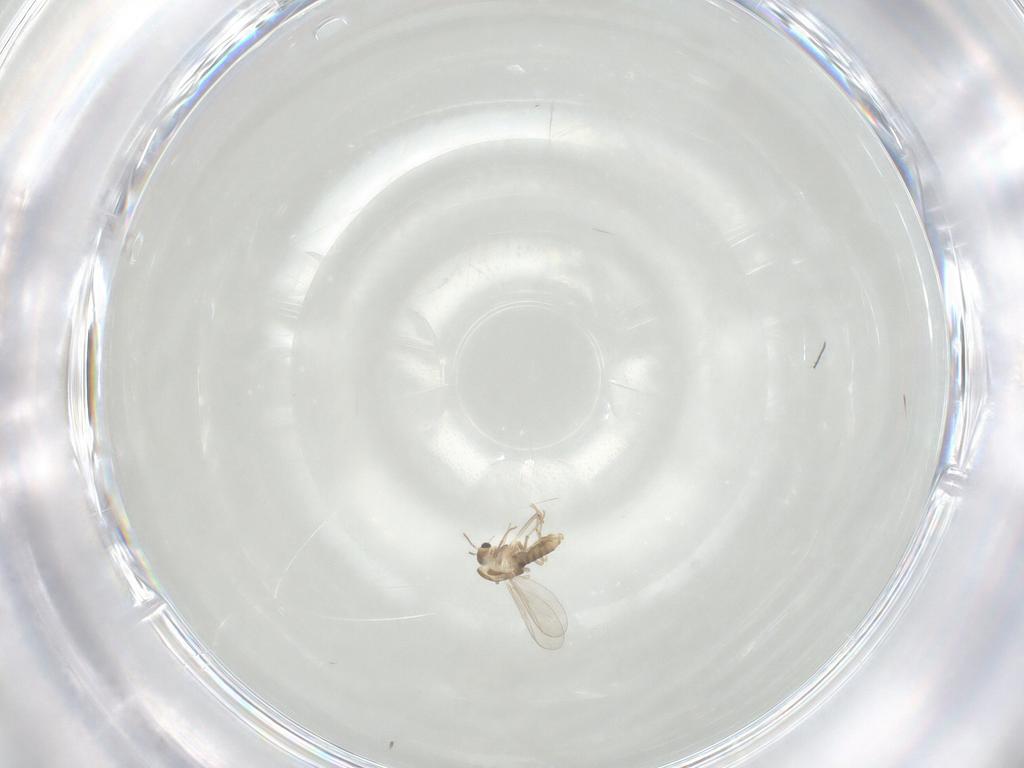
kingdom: Animalia
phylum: Arthropoda
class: Insecta
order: Diptera
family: Chironomidae
